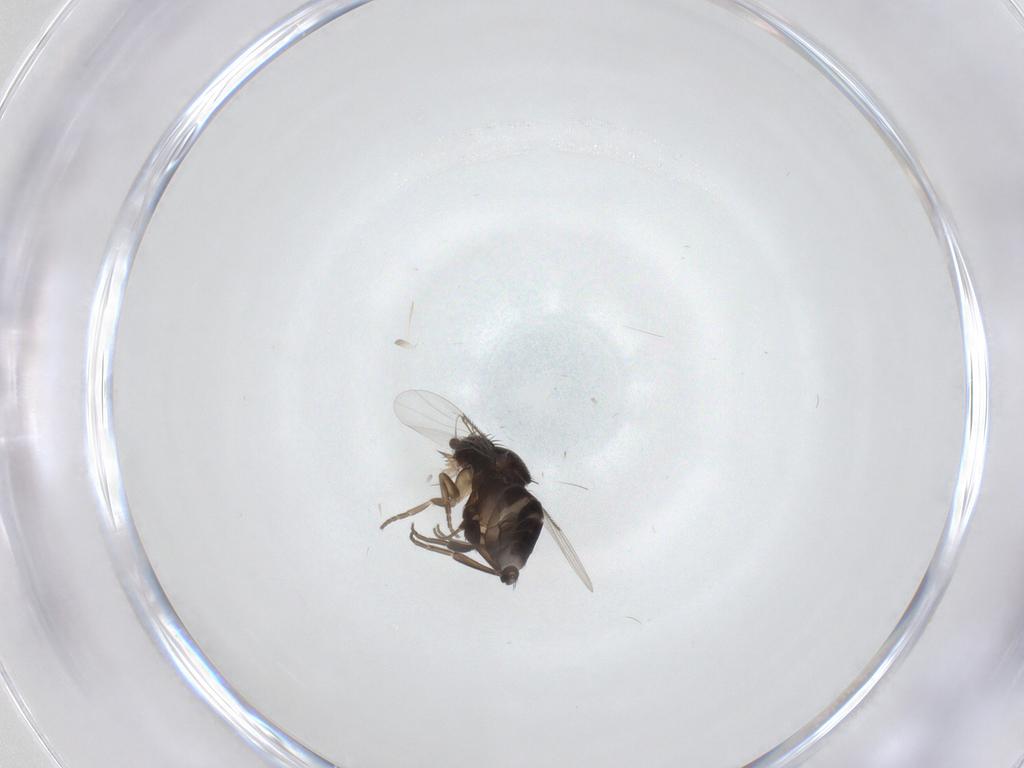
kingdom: Animalia
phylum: Arthropoda
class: Insecta
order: Diptera
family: Phoridae
